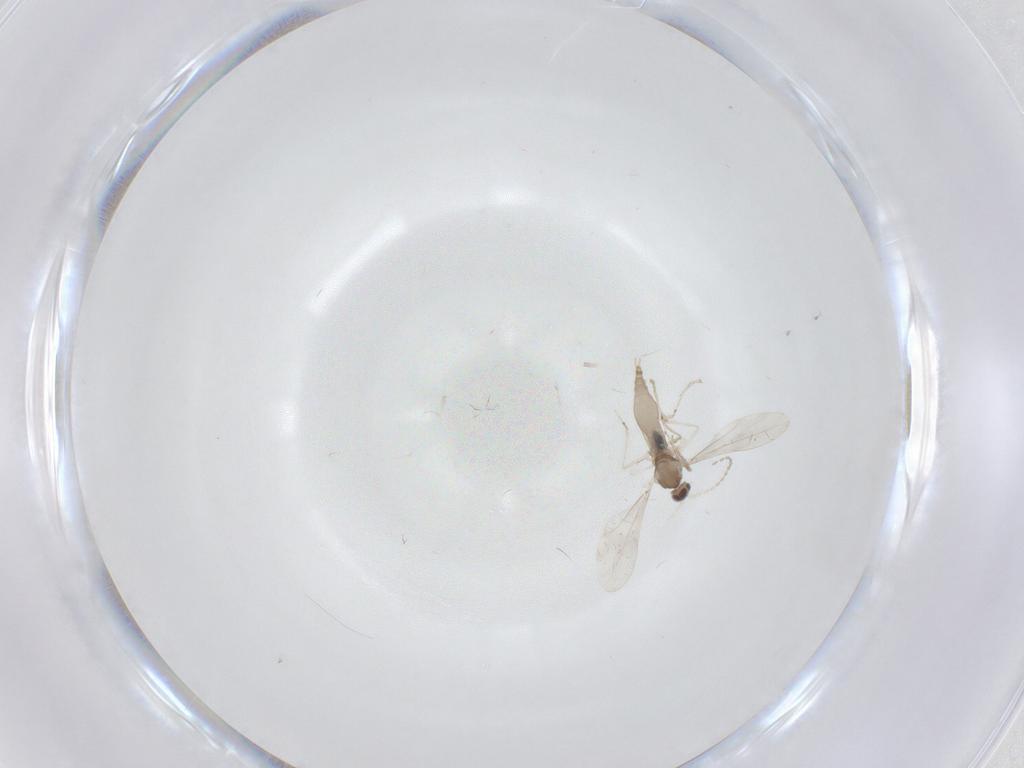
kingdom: Animalia
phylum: Arthropoda
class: Insecta
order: Diptera
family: Cecidomyiidae
